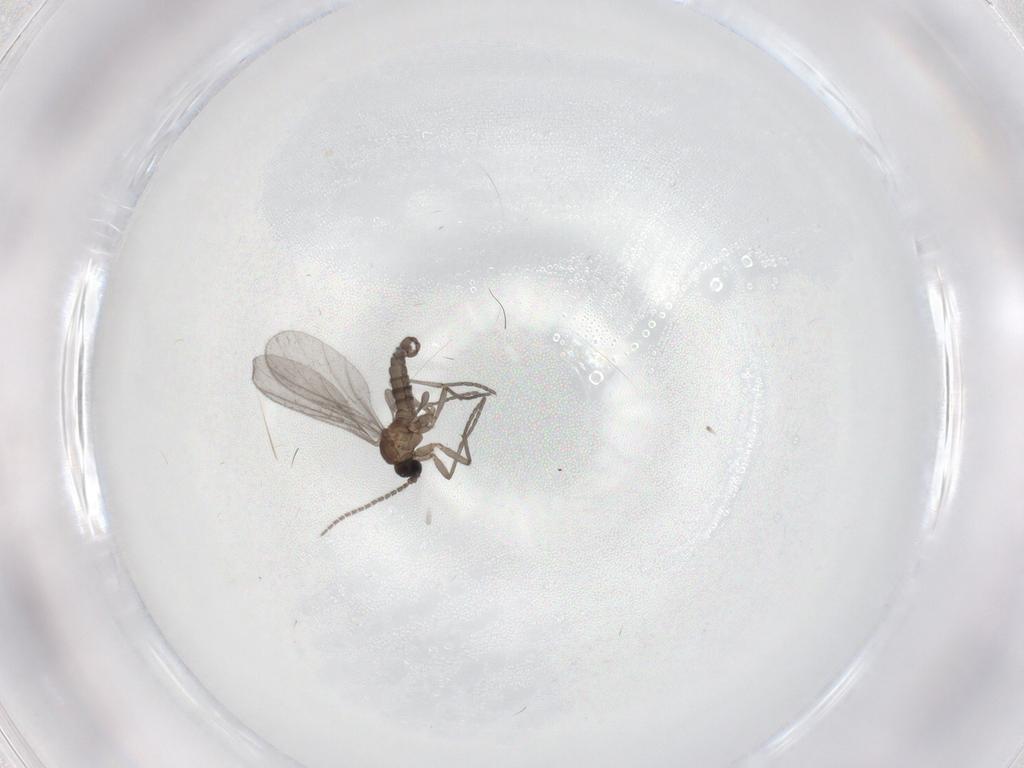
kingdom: Animalia
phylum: Arthropoda
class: Insecta
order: Diptera
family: Sciaridae
